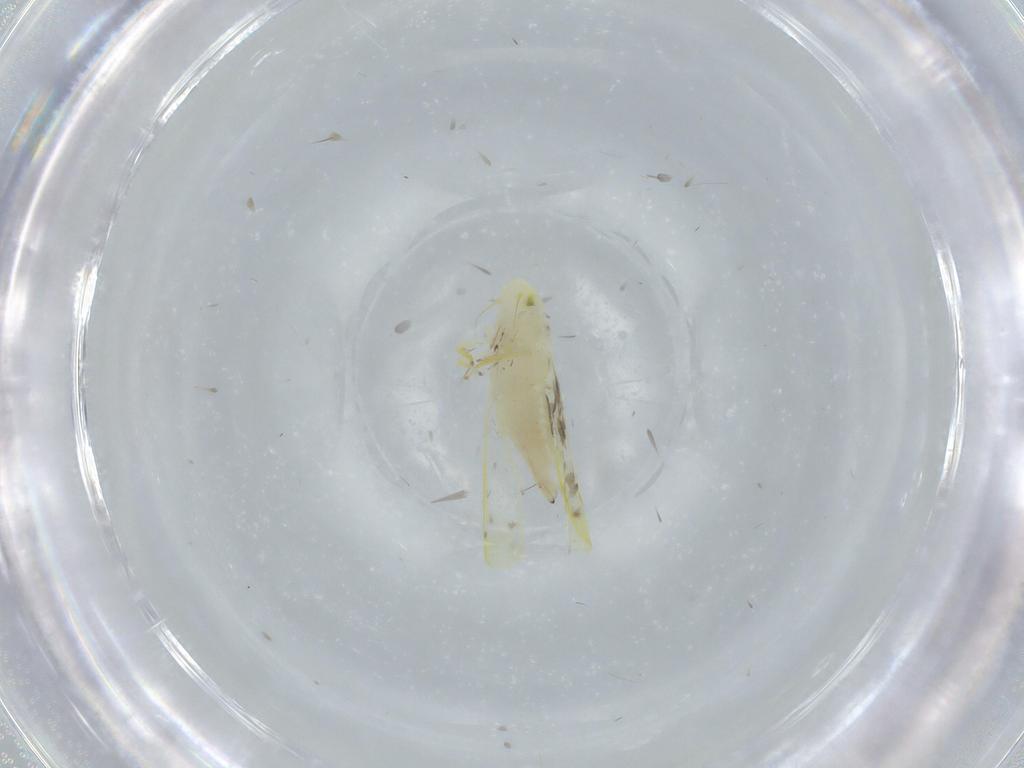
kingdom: Animalia
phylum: Arthropoda
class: Insecta
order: Hemiptera
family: Cicadellidae
